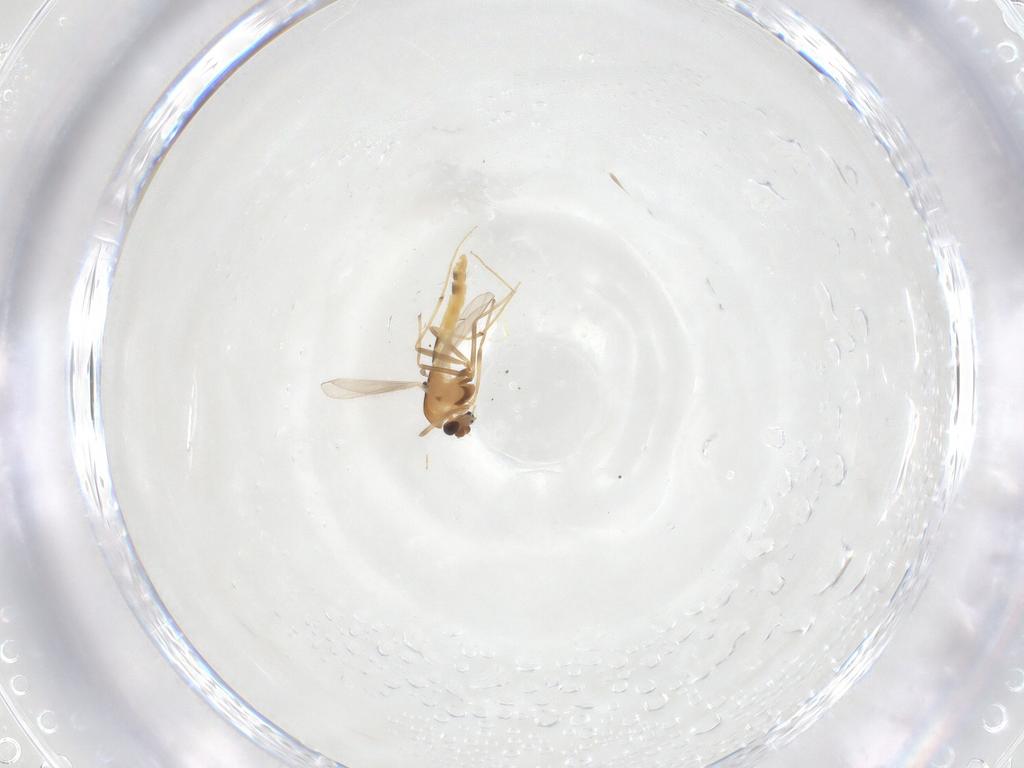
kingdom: Animalia
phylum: Arthropoda
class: Insecta
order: Diptera
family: Chironomidae
